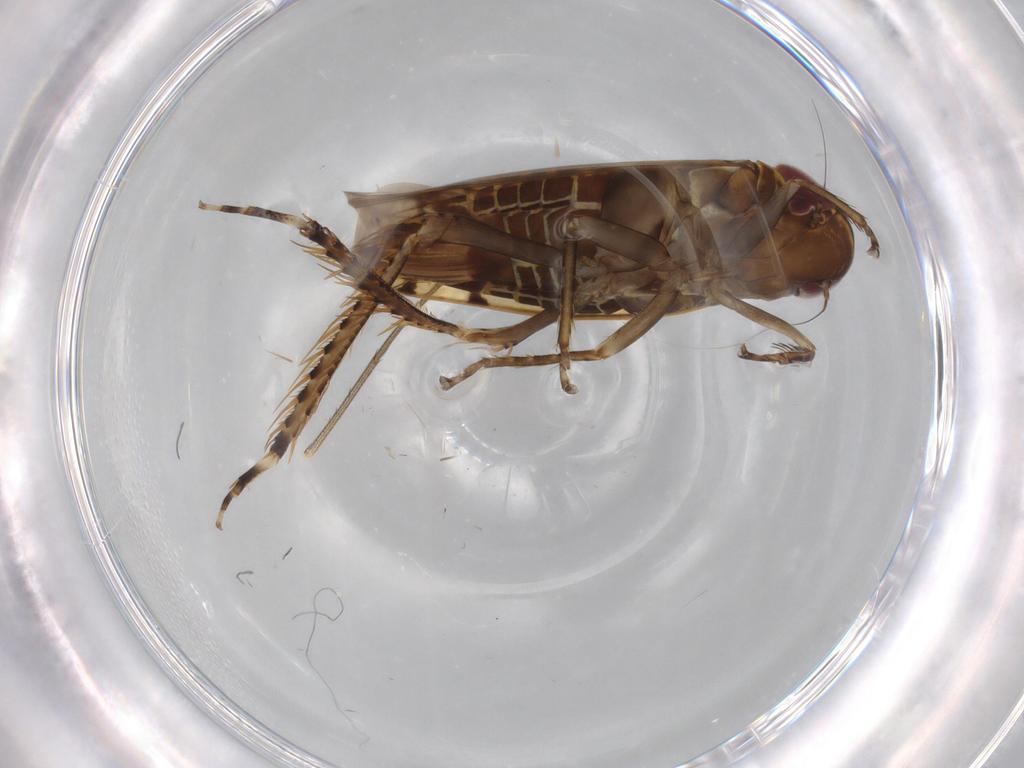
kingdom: Animalia
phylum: Arthropoda
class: Insecta
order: Hemiptera
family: Cicadellidae
